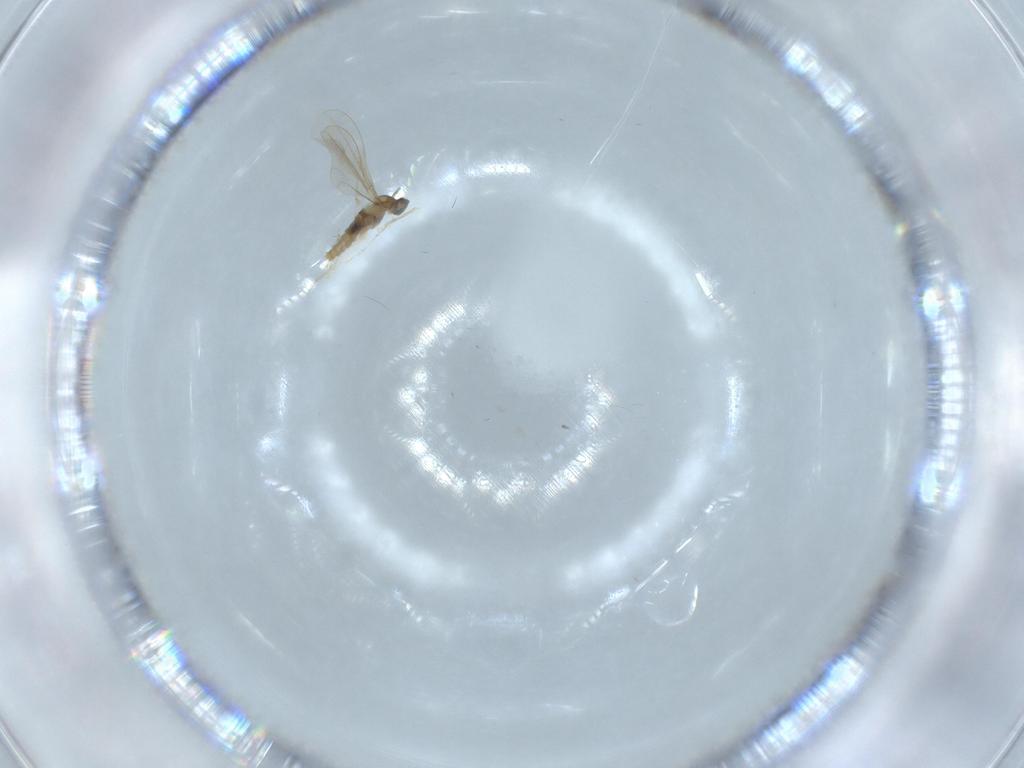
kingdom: Animalia
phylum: Arthropoda
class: Insecta
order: Diptera
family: Cecidomyiidae
